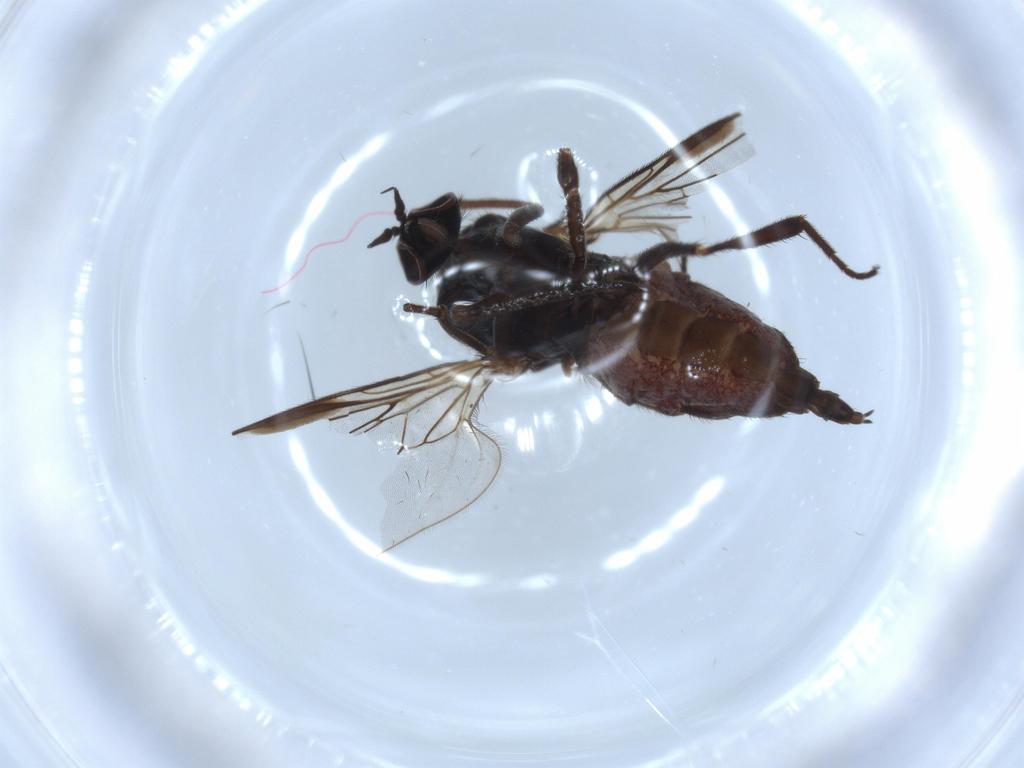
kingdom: Animalia
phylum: Arthropoda
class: Insecta
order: Diptera
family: Empididae
